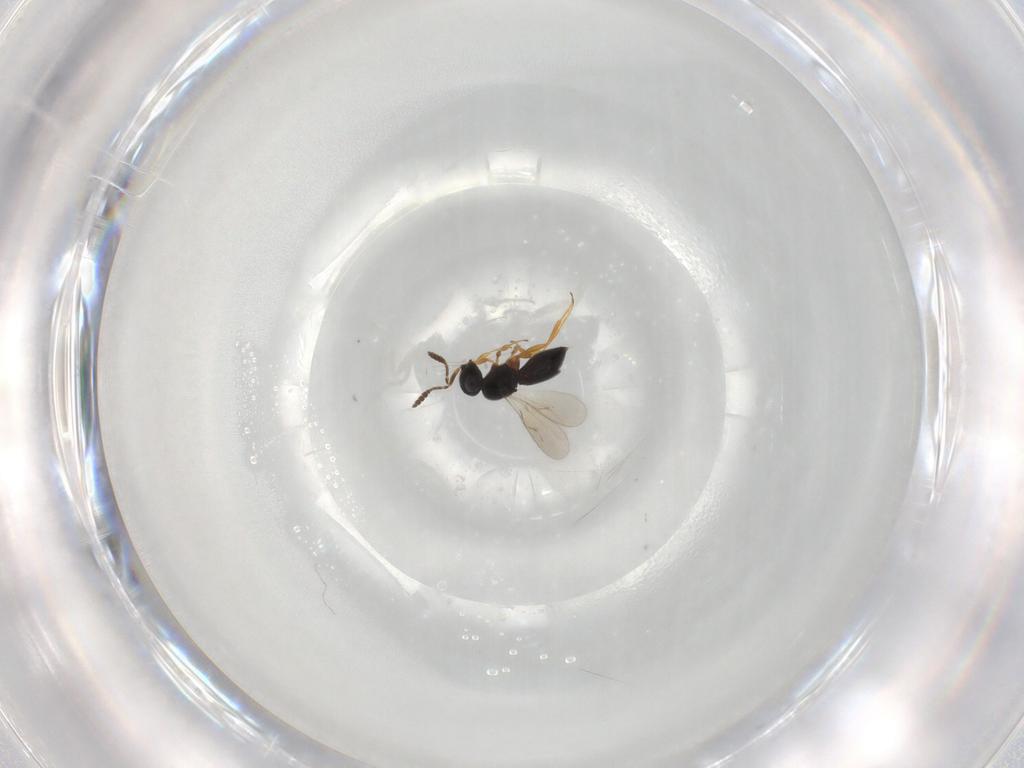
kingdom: Animalia
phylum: Arthropoda
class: Insecta
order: Hymenoptera
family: Scelionidae
